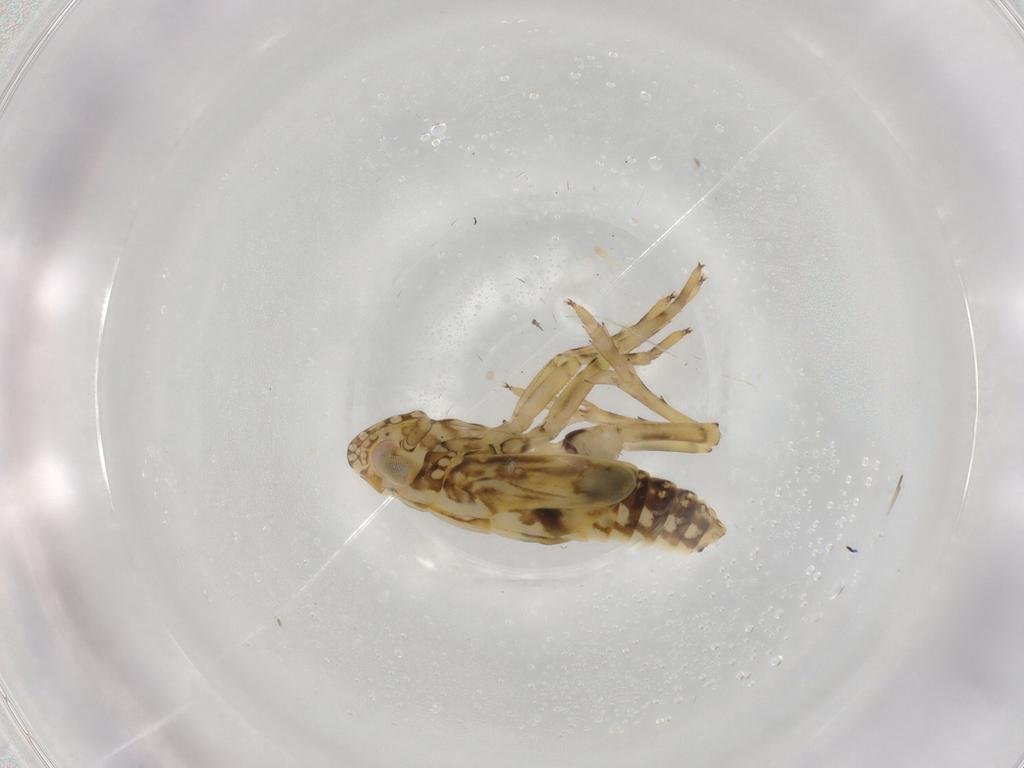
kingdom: Animalia
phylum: Arthropoda
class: Insecta
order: Hemiptera
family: Cicadellidae
